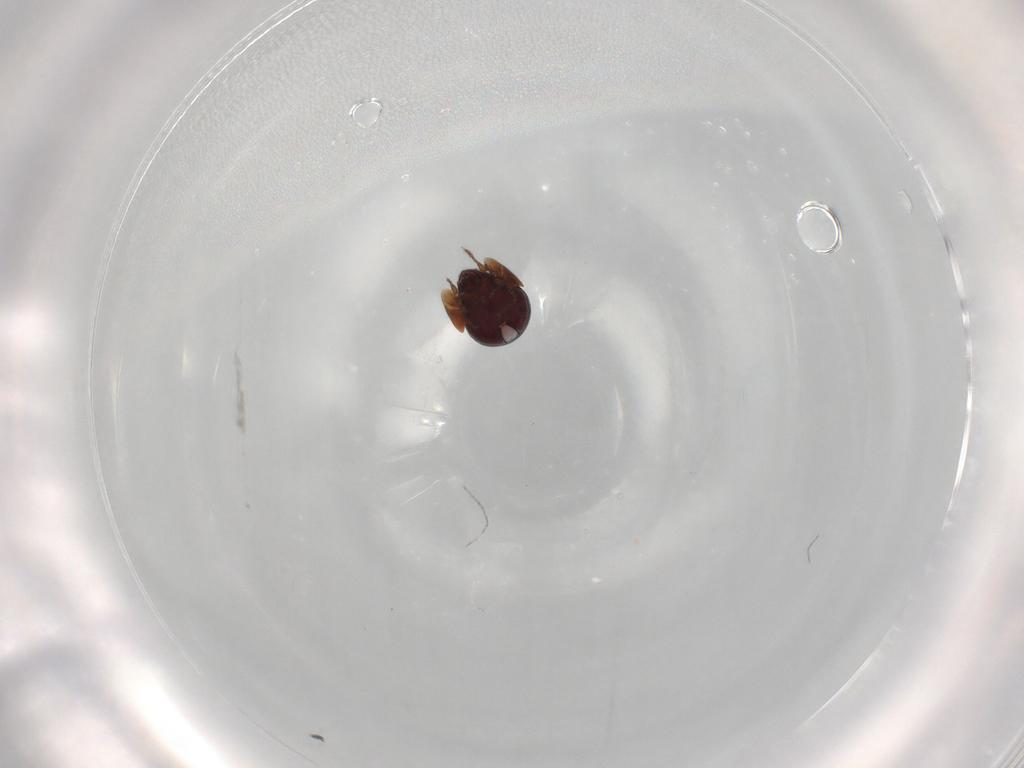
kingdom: Animalia
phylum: Arthropoda
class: Arachnida
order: Sarcoptiformes
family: Galumnidae
